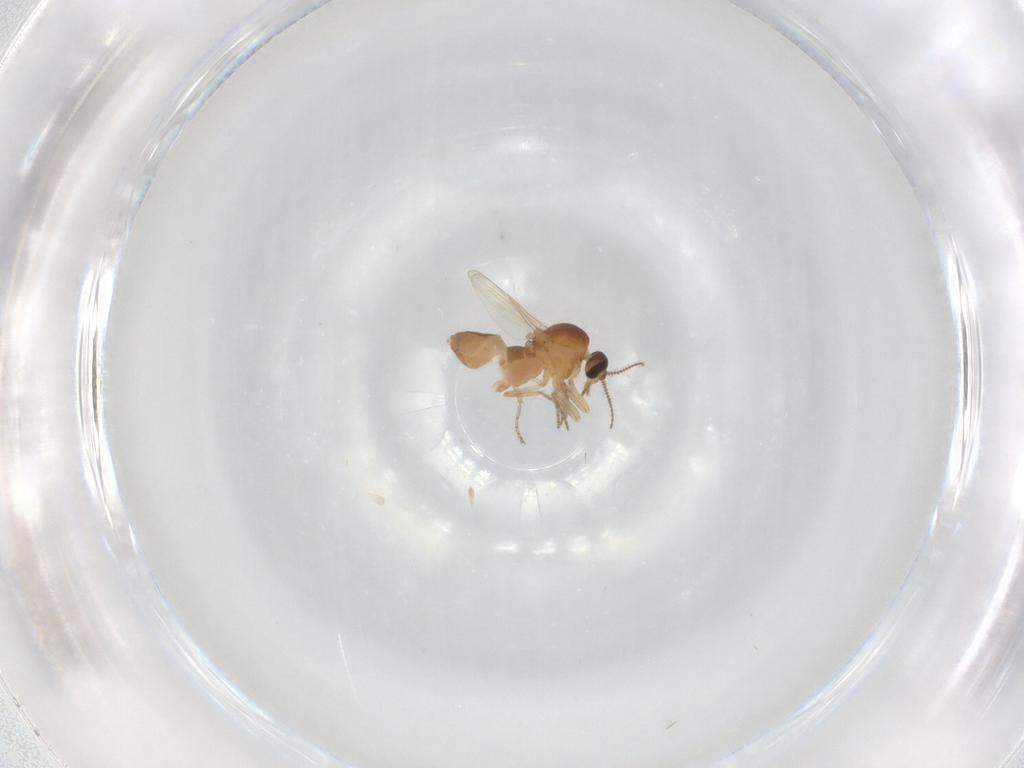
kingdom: Animalia
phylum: Arthropoda
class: Insecta
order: Diptera
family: Ceratopogonidae
